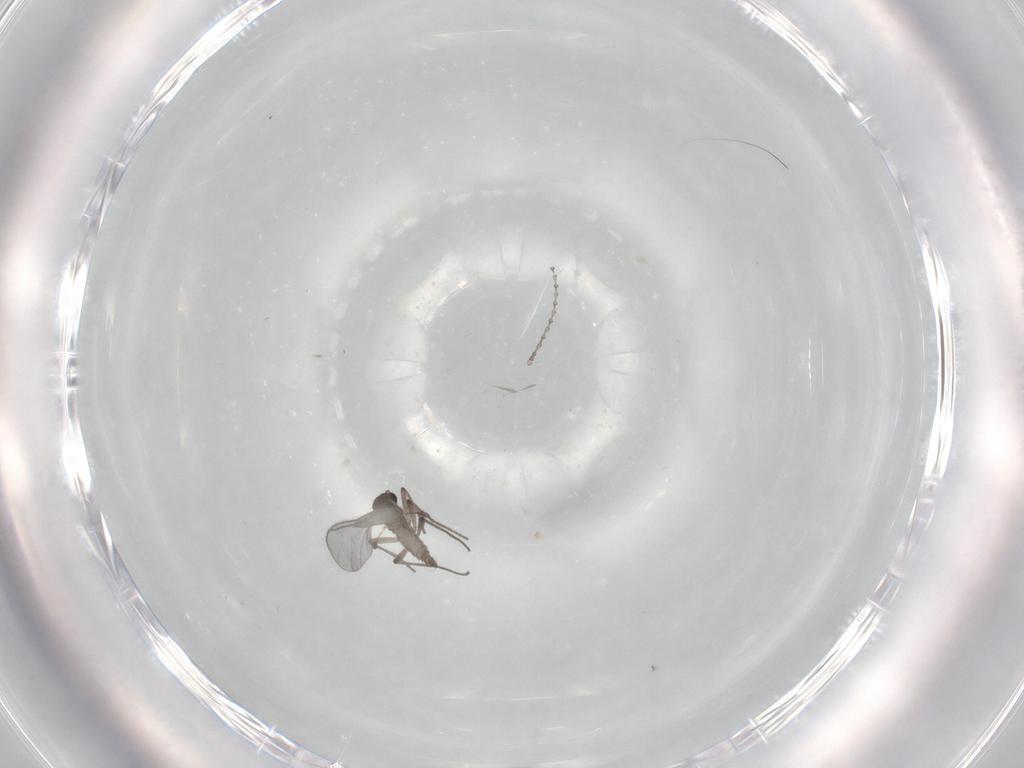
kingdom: Animalia
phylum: Arthropoda
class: Insecta
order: Diptera
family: Sciaridae
